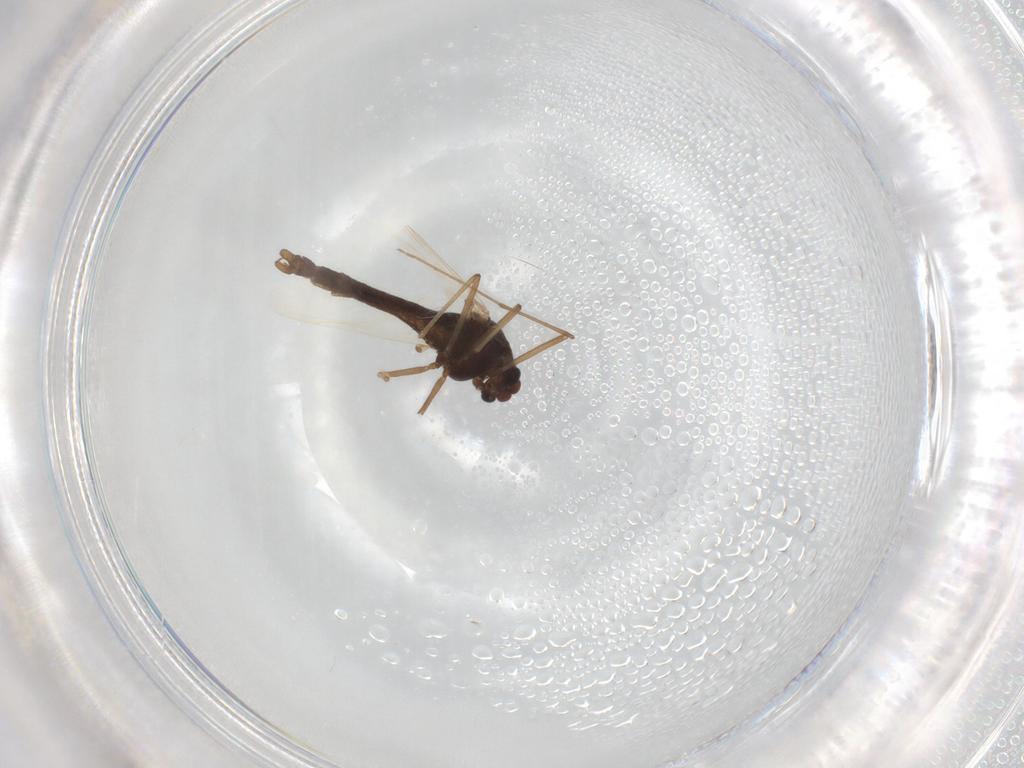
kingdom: Animalia
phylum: Arthropoda
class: Insecta
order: Diptera
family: Chironomidae
